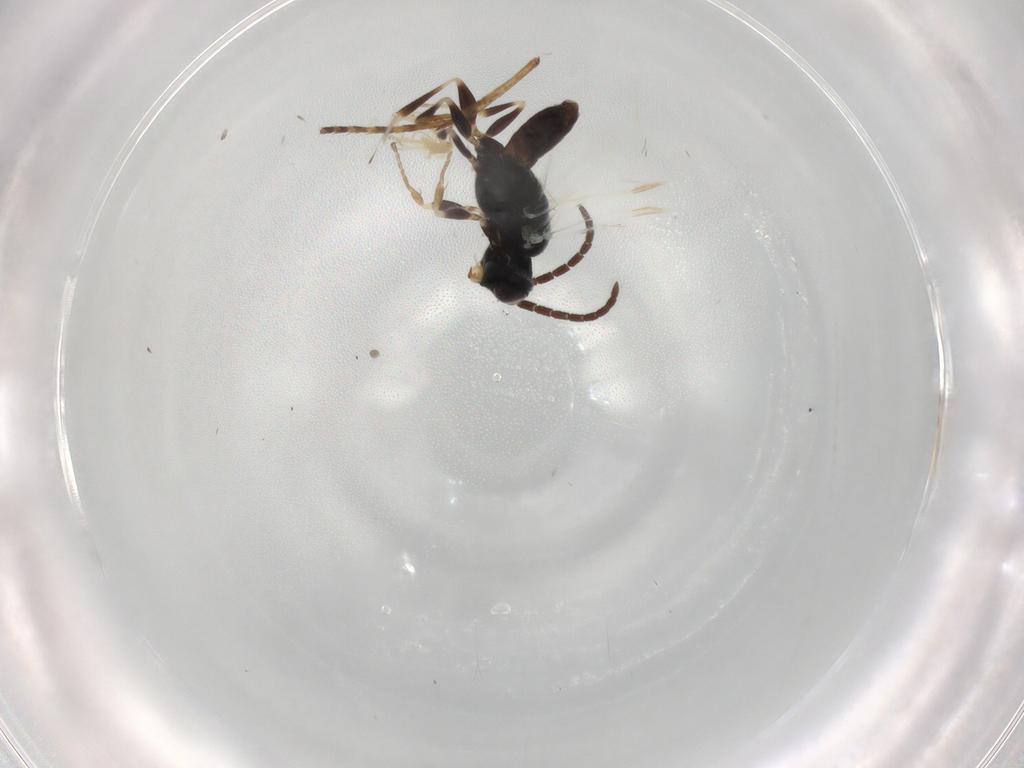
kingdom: Animalia
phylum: Arthropoda
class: Insecta
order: Hymenoptera
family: Dryinidae
